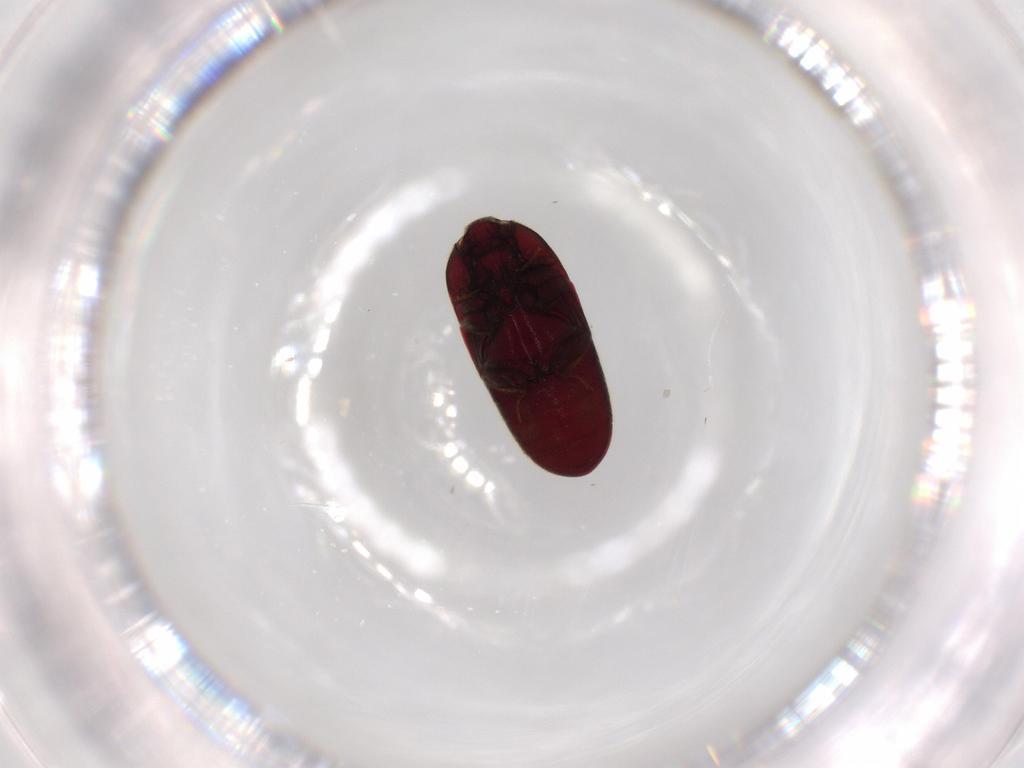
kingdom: Animalia
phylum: Arthropoda
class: Insecta
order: Coleoptera
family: Throscidae
